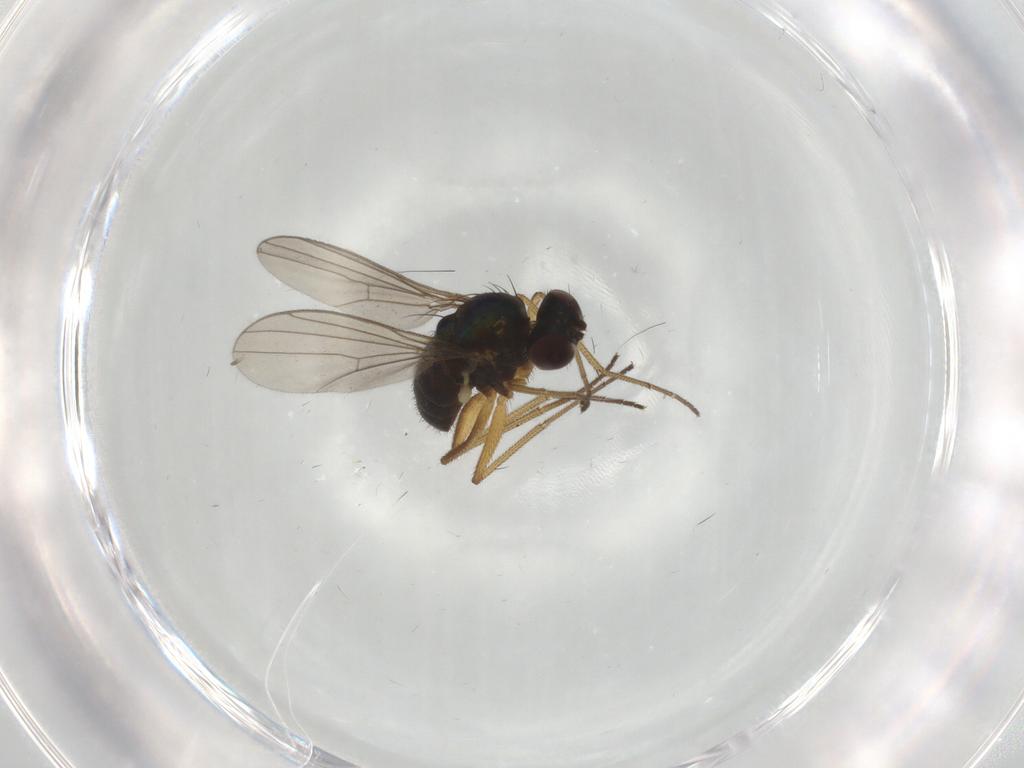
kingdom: Animalia
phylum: Arthropoda
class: Insecta
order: Diptera
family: Dolichopodidae
